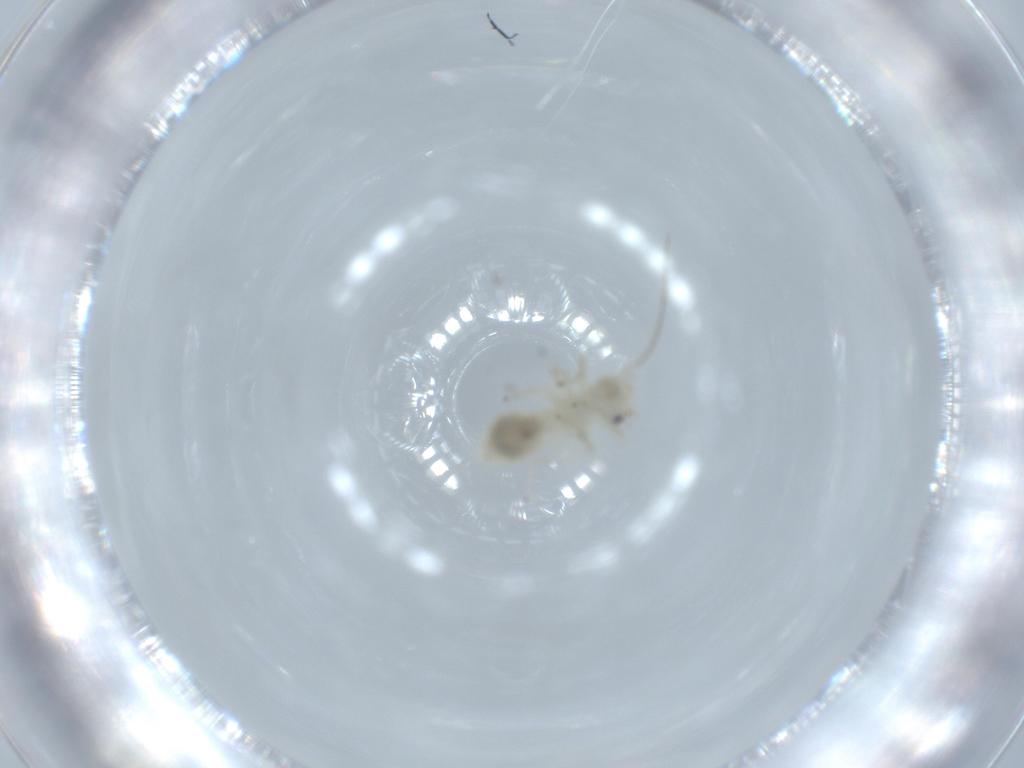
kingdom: Animalia
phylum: Arthropoda
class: Insecta
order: Psocodea
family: Caeciliusidae
